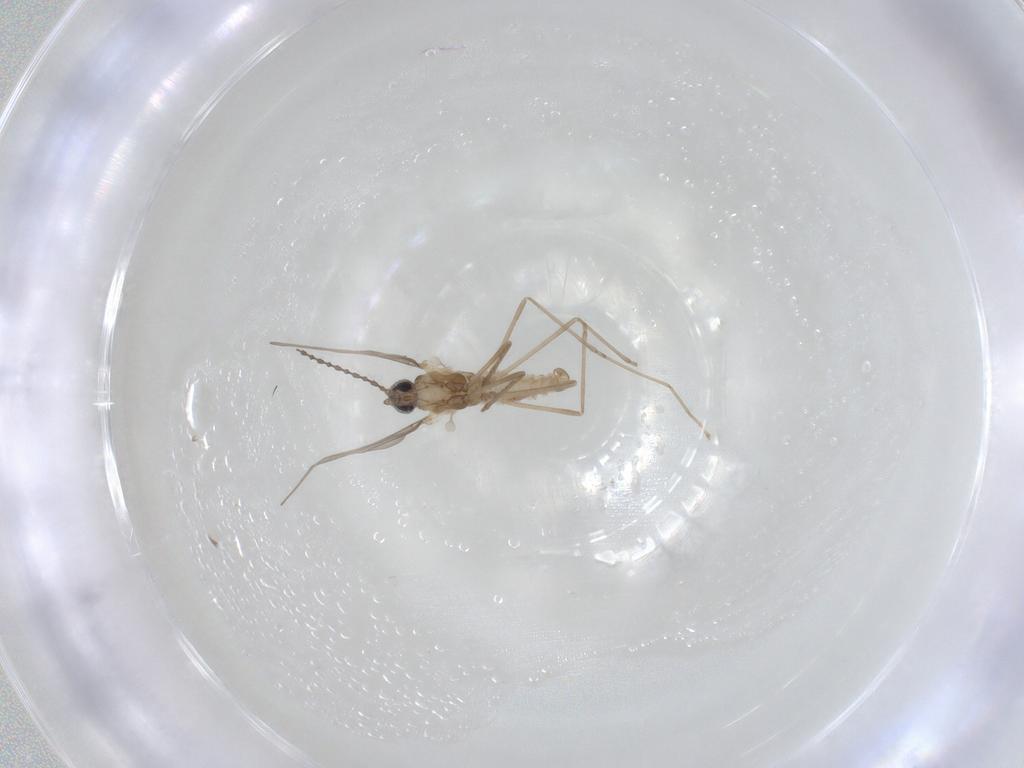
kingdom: Animalia
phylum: Arthropoda
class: Insecta
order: Diptera
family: Cecidomyiidae
